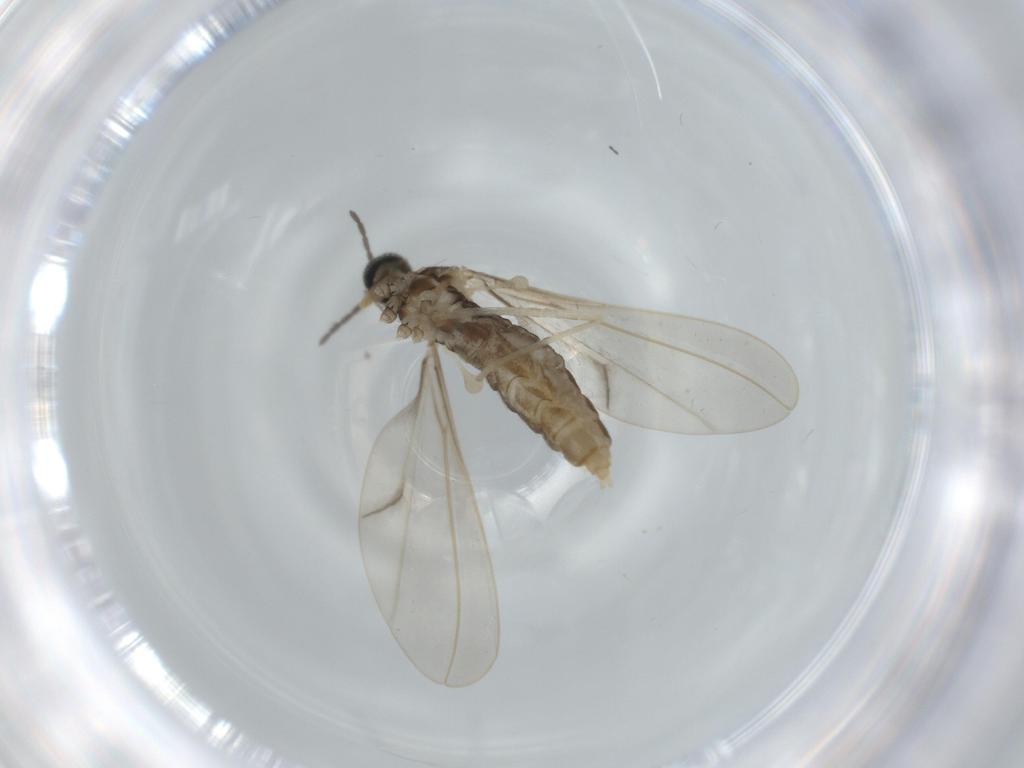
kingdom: Animalia
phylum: Arthropoda
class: Insecta
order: Diptera
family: Cecidomyiidae
